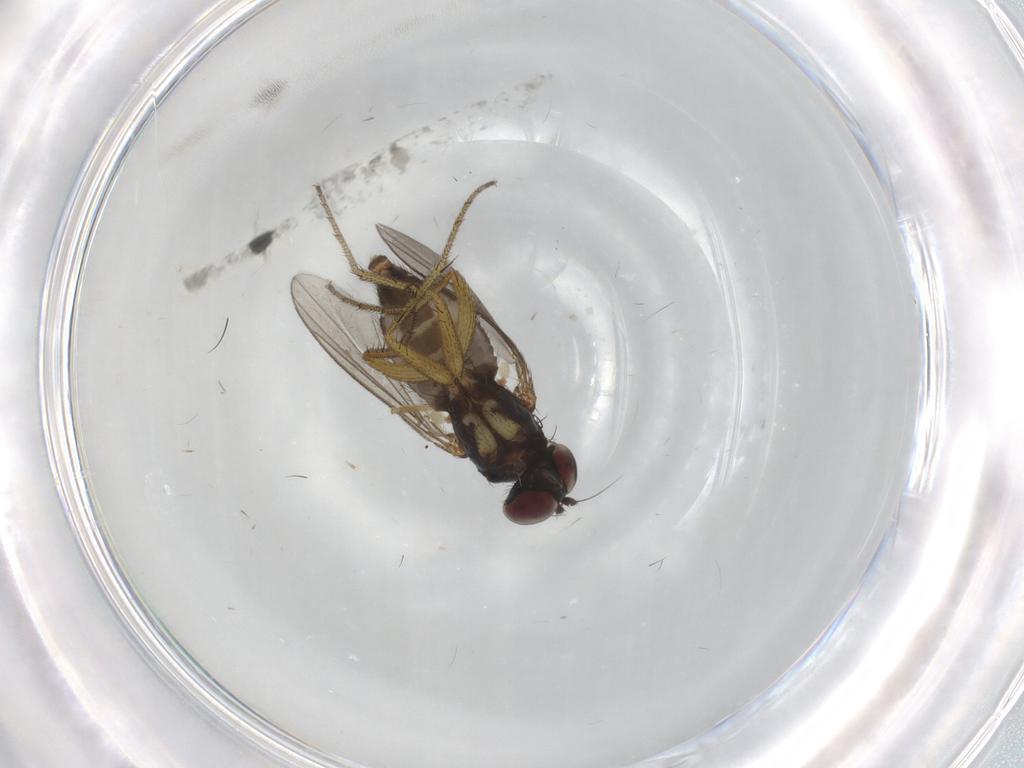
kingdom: Animalia
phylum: Arthropoda
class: Insecta
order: Diptera
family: Dolichopodidae
